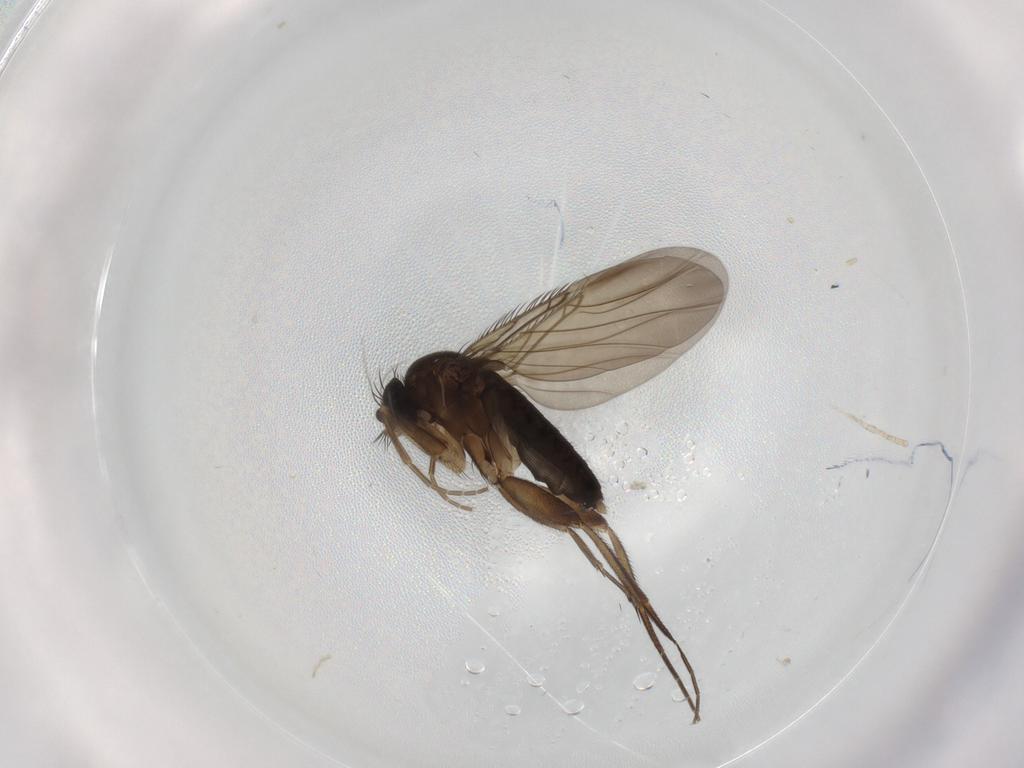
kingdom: Animalia
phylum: Arthropoda
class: Insecta
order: Diptera
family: Phoridae
